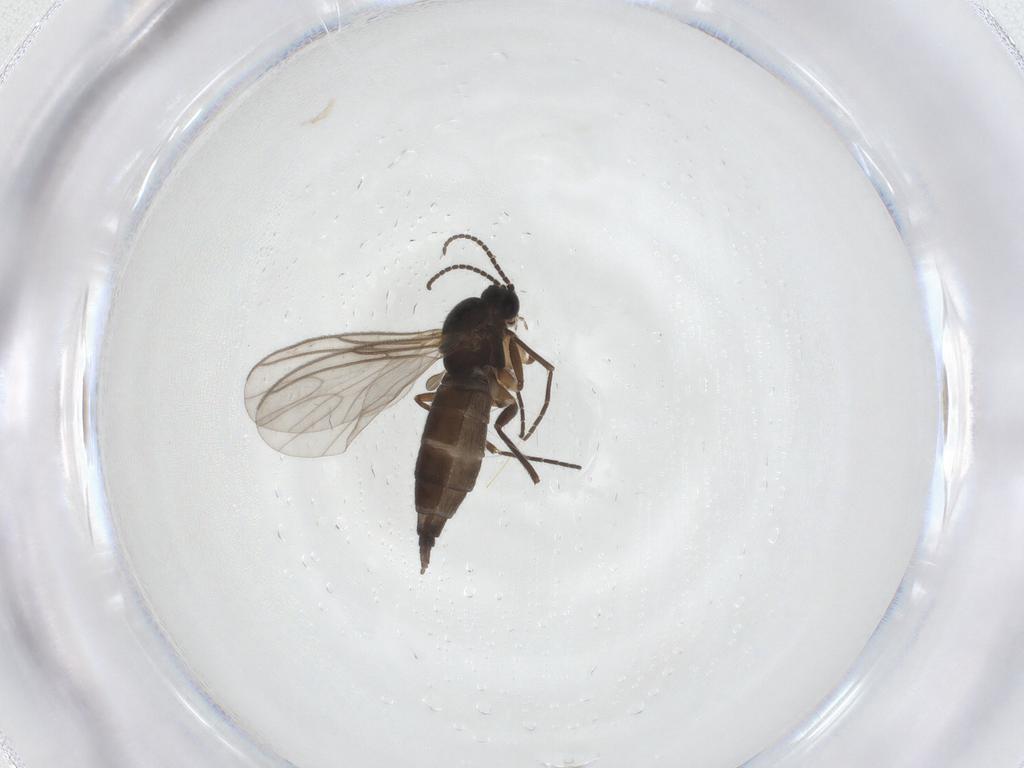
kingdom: Animalia
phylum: Arthropoda
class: Insecta
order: Diptera
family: Sciaridae
